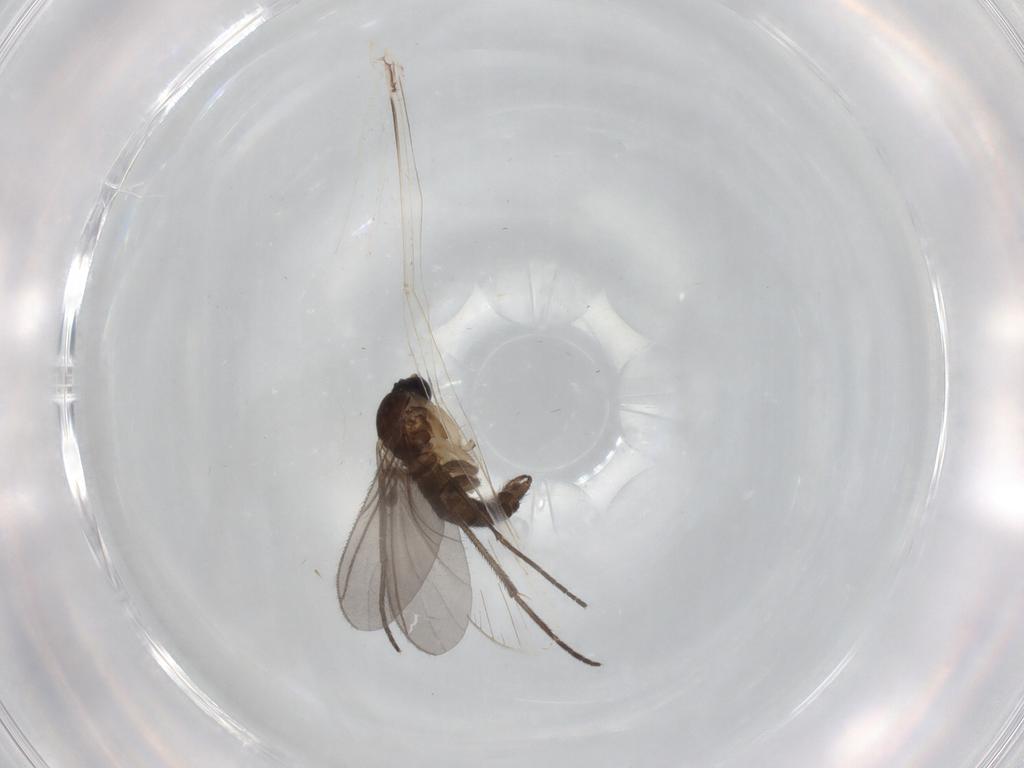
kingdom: Animalia
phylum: Arthropoda
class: Insecta
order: Diptera
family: Sciaridae
